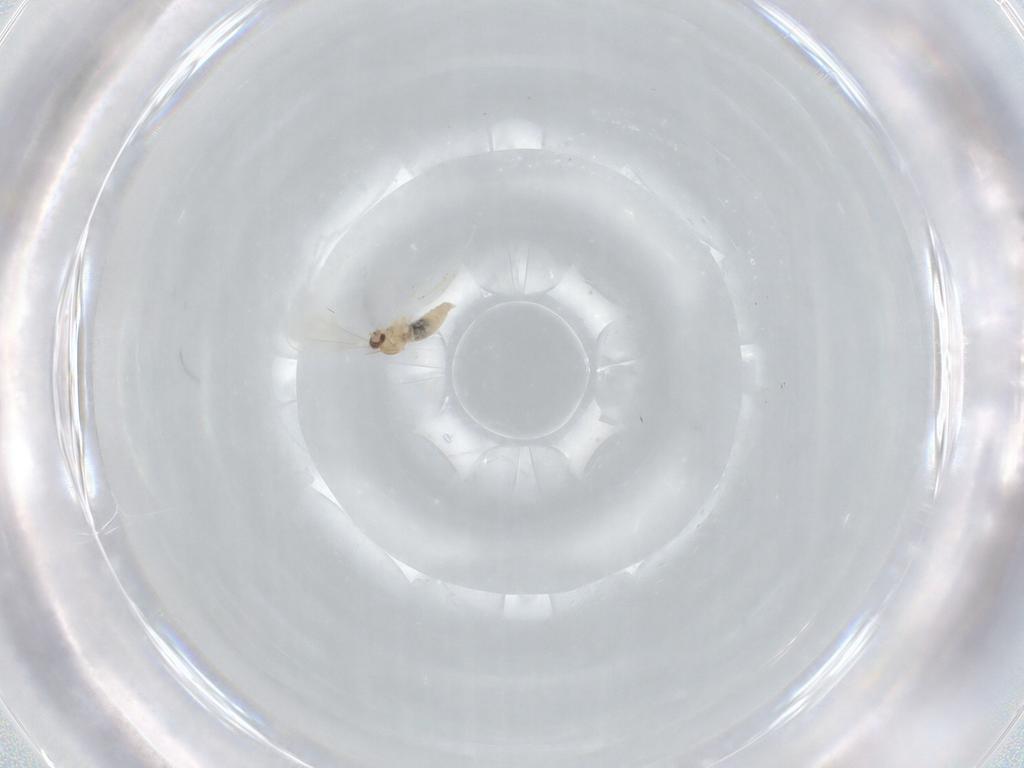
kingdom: Animalia
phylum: Arthropoda
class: Insecta
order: Diptera
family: Cecidomyiidae
